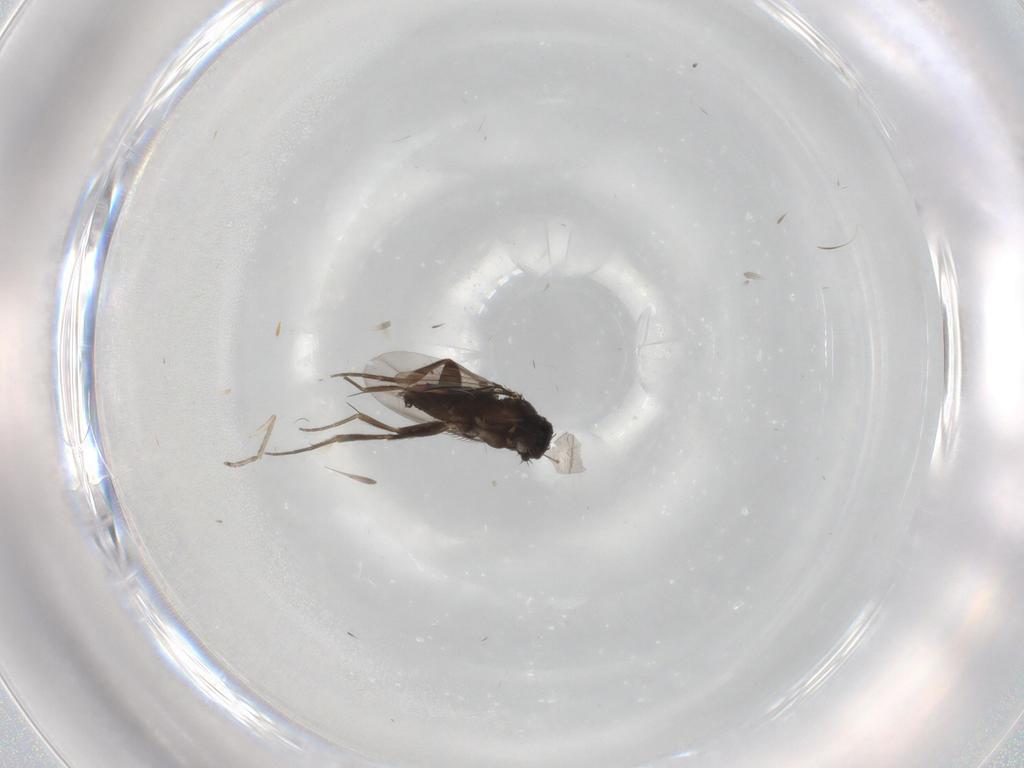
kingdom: Animalia
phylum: Arthropoda
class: Insecta
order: Diptera
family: Phoridae
